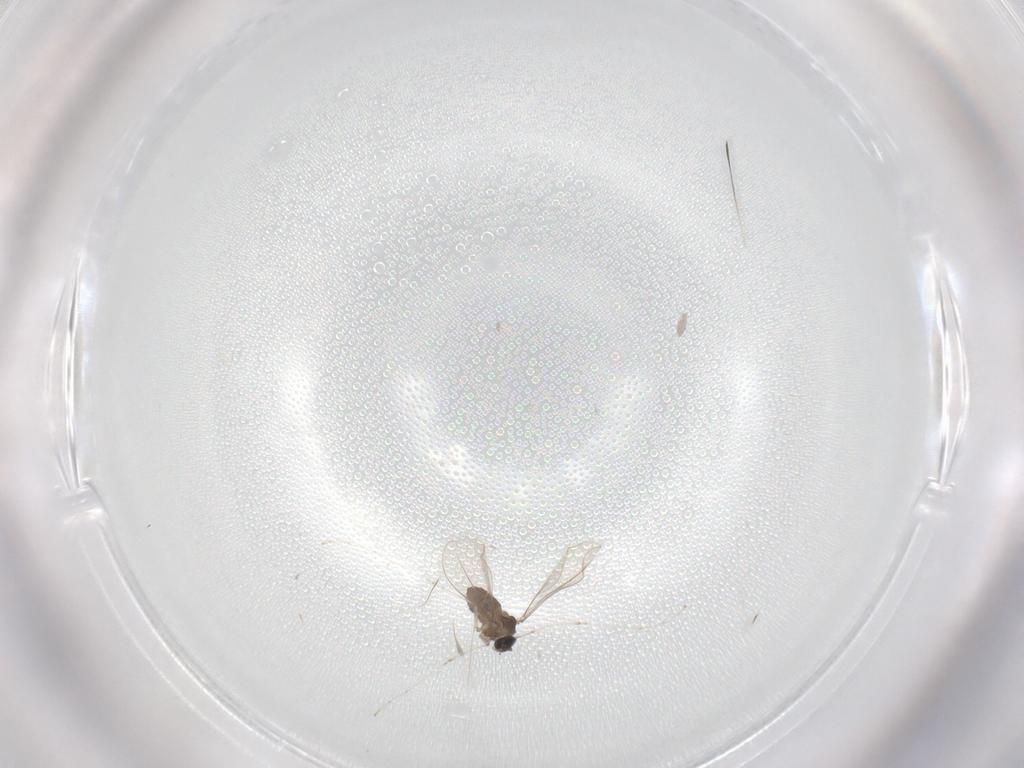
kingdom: Animalia
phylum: Arthropoda
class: Insecta
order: Diptera
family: Cecidomyiidae
